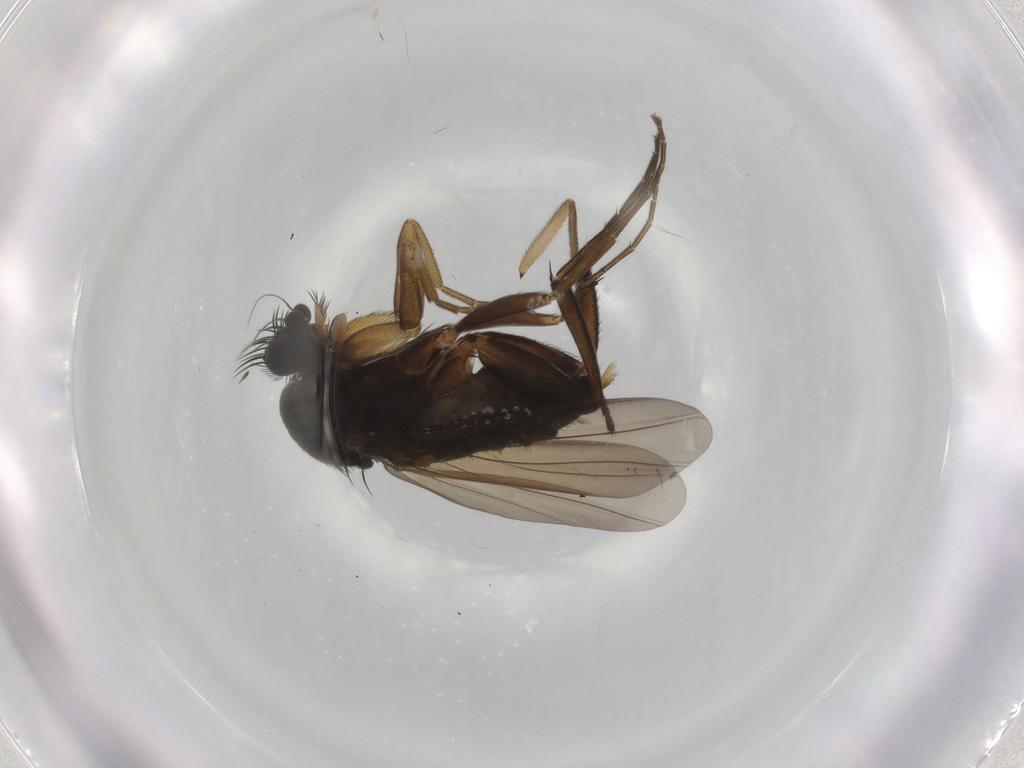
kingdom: Animalia
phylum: Arthropoda
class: Insecta
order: Diptera
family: Phoridae
